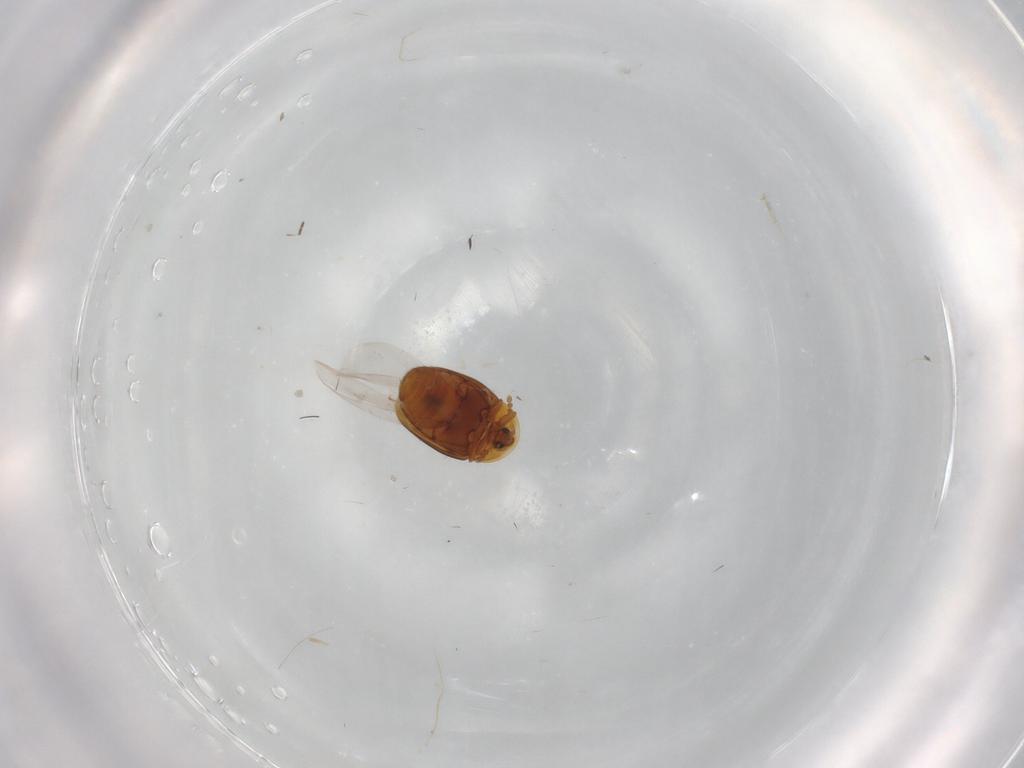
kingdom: Animalia
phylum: Arthropoda
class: Insecta
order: Coleoptera
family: Corylophidae
